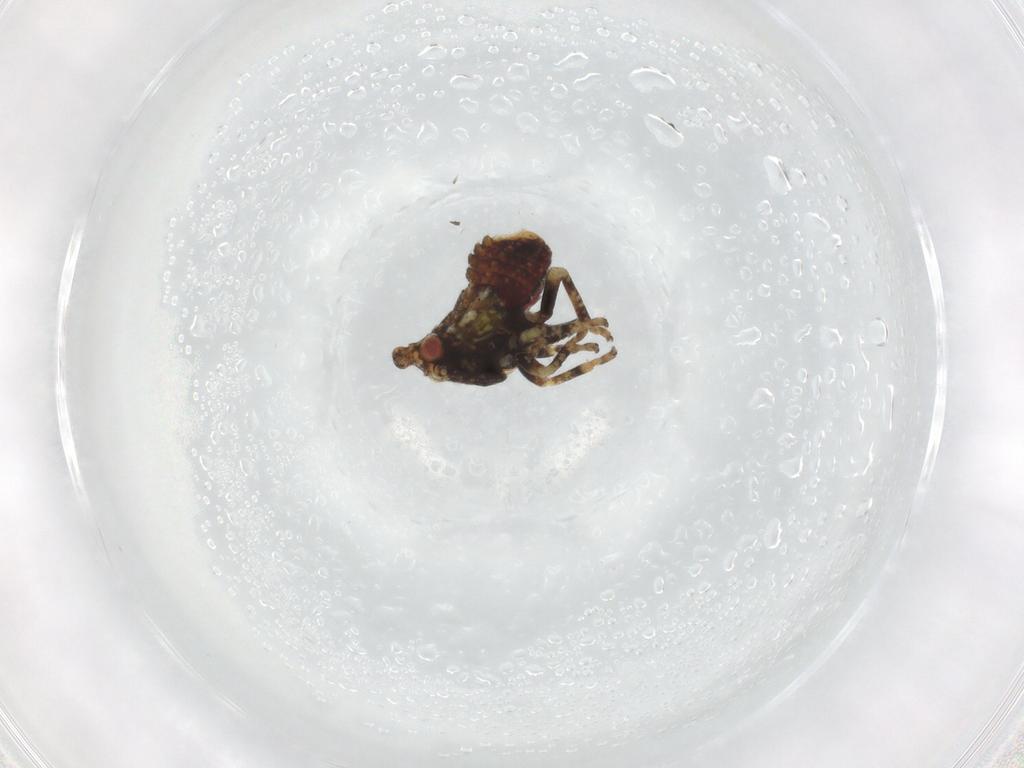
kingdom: Animalia
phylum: Arthropoda
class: Insecta
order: Hemiptera
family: Cicadellidae
